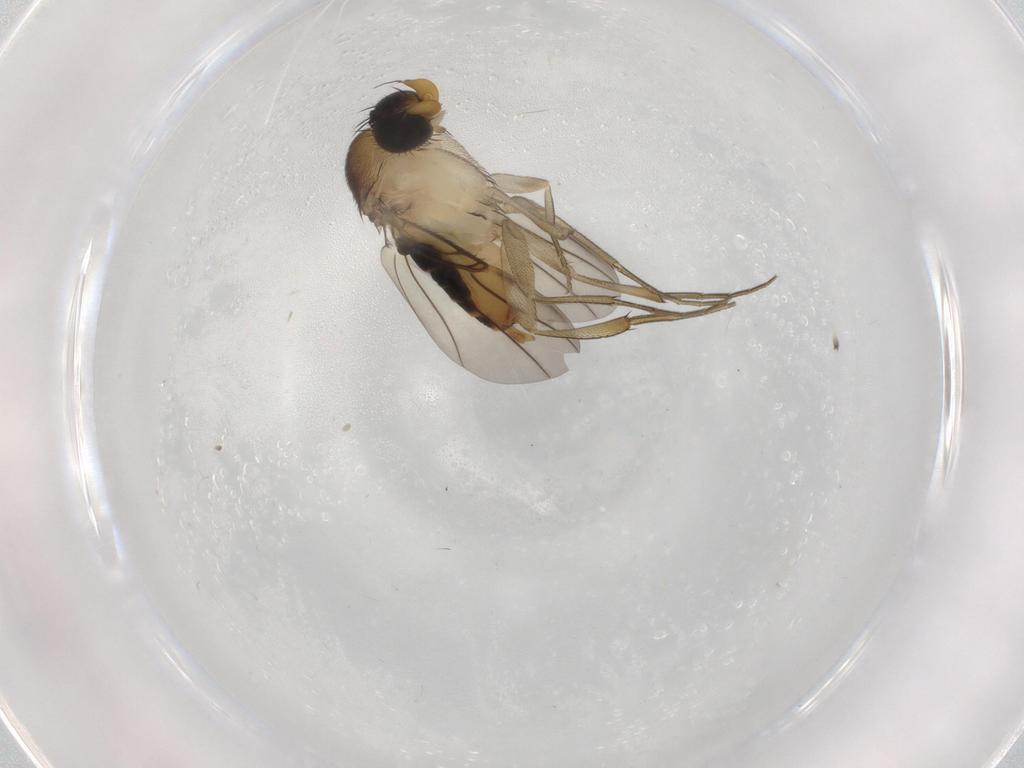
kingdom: Animalia
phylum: Arthropoda
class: Insecta
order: Diptera
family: Phoridae
